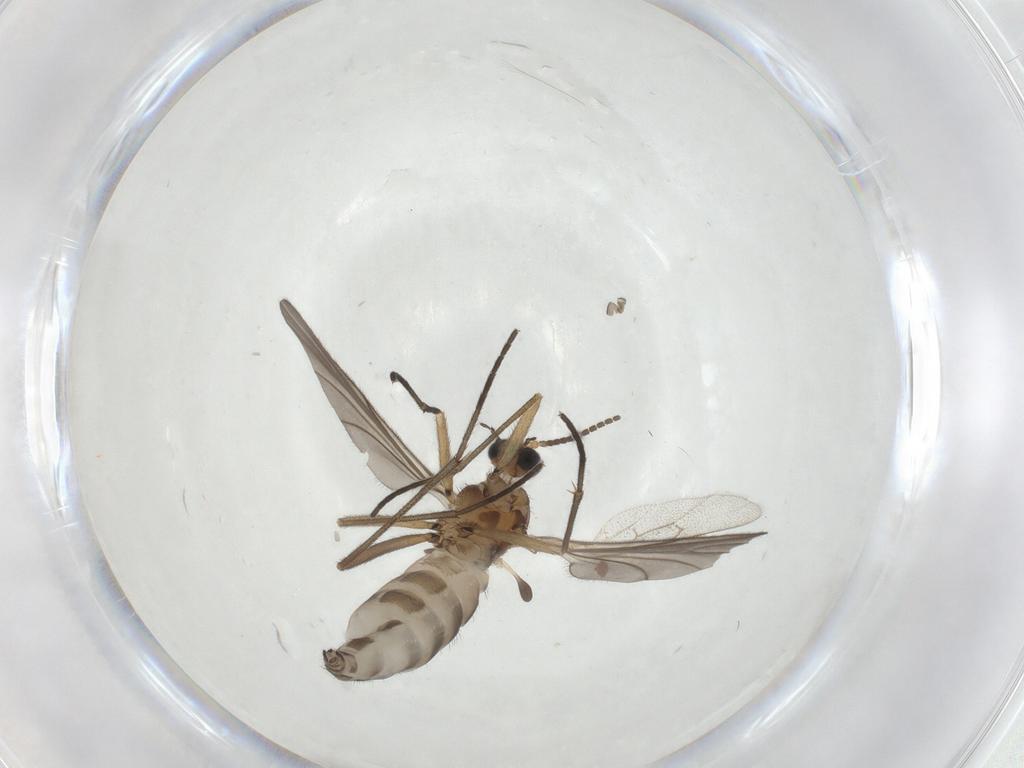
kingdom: Animalia
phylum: Arthropoda
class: Insecta
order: Diptera
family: Sciaridae
